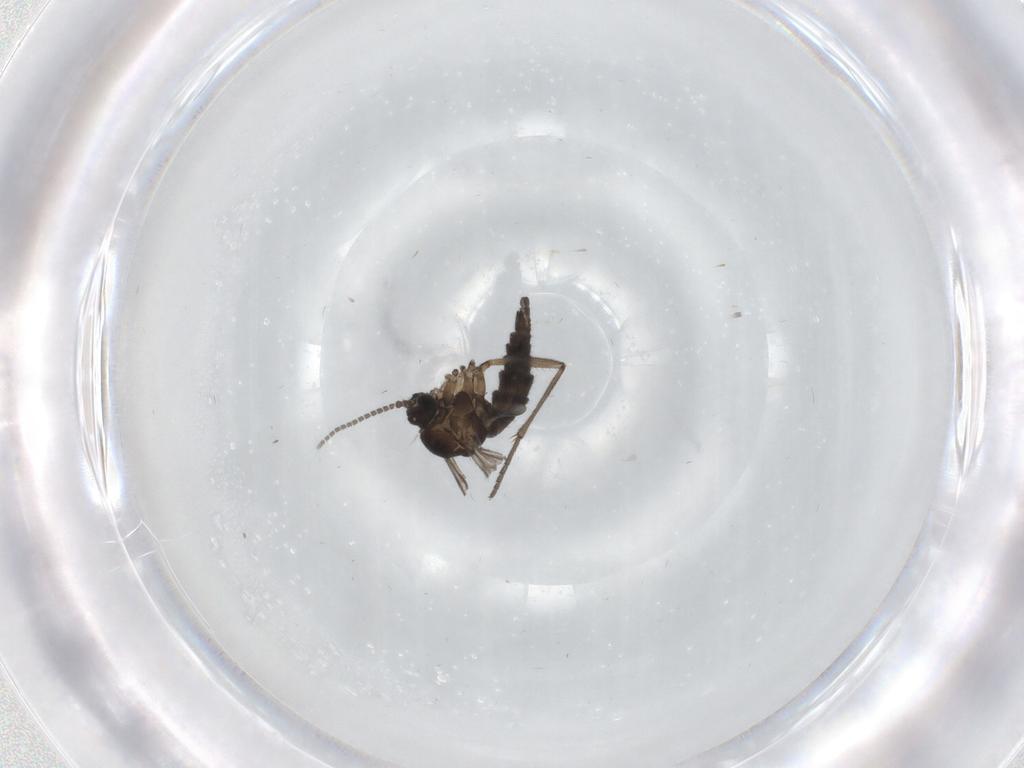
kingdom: Animalia
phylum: Arthropoda
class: Insecta
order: Diptera
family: Sciaridae
